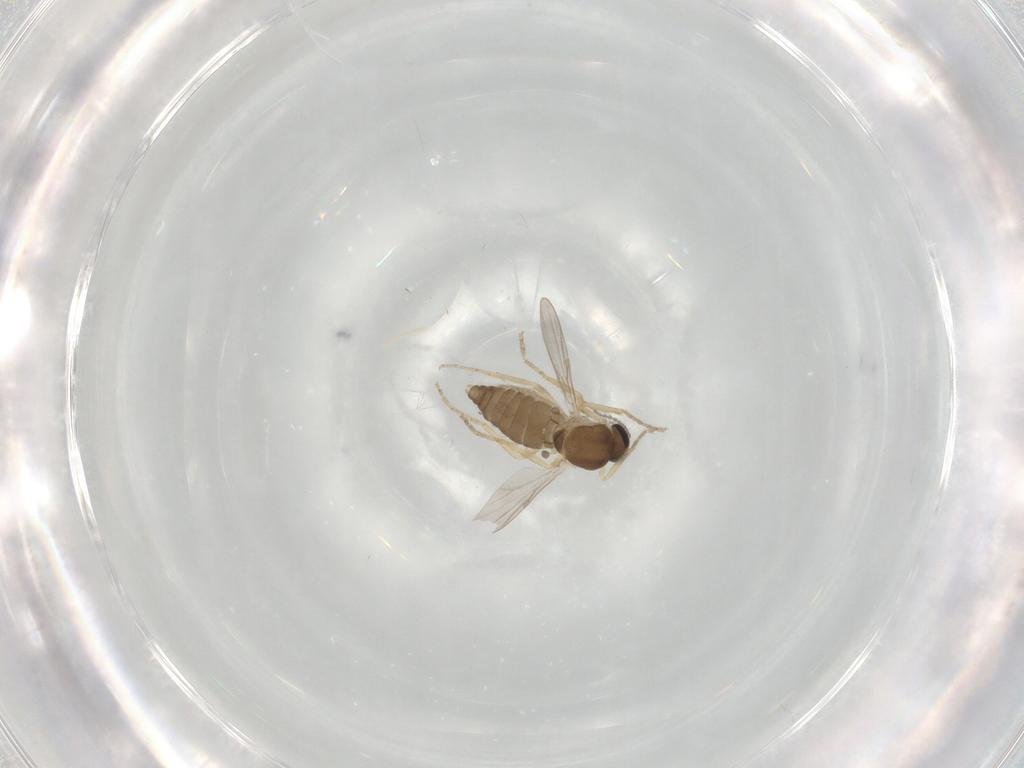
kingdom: Animalia
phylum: Arthropoda
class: Insecta
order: Diptera
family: Ceratopogonidae
